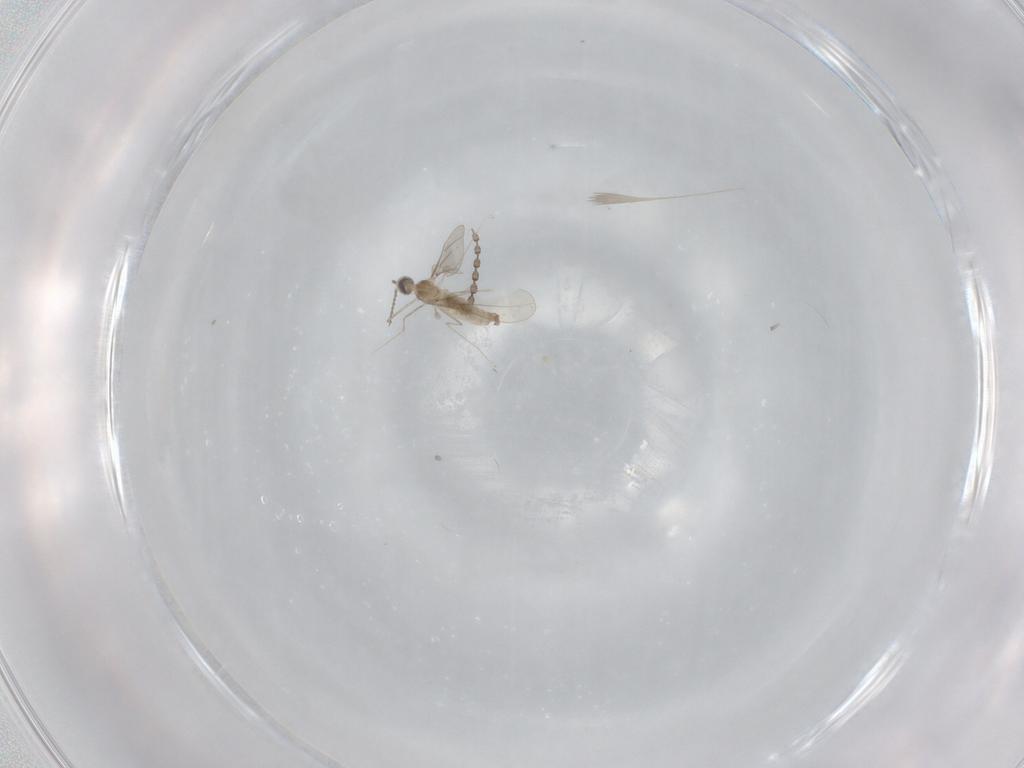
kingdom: Animalia
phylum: Arthropoda
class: Insecta
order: Diptera
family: Cecidomyiidae
